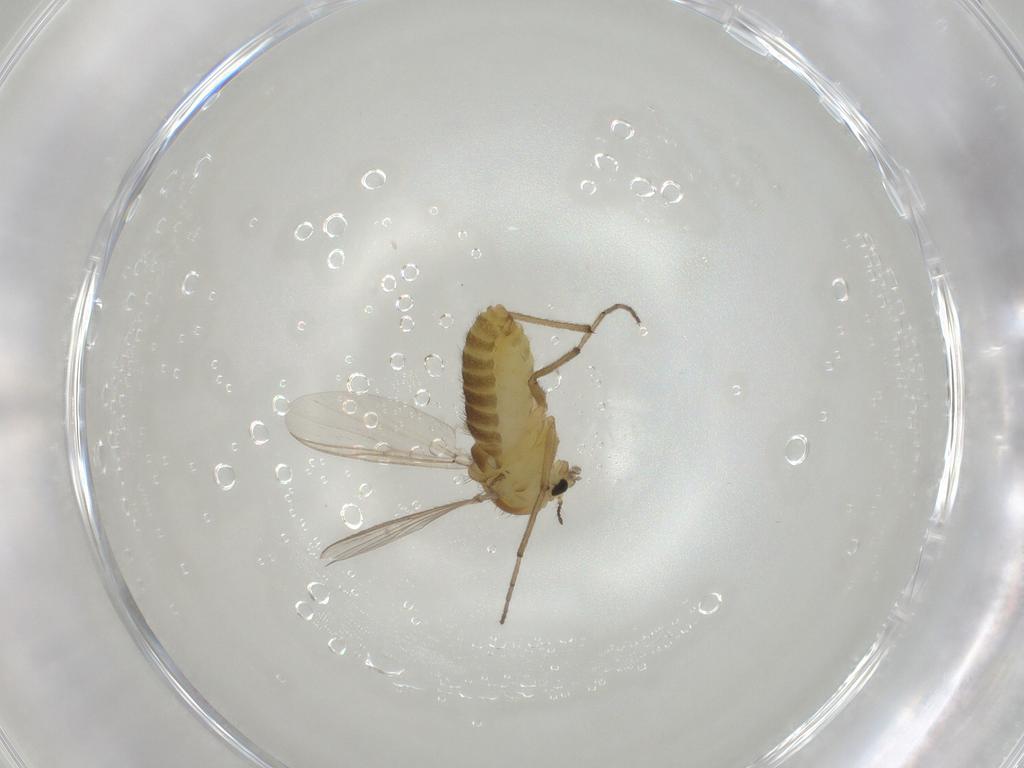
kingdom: Animalia
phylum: Arthropoda
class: Insecta
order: Diptera
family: Chironomidae
